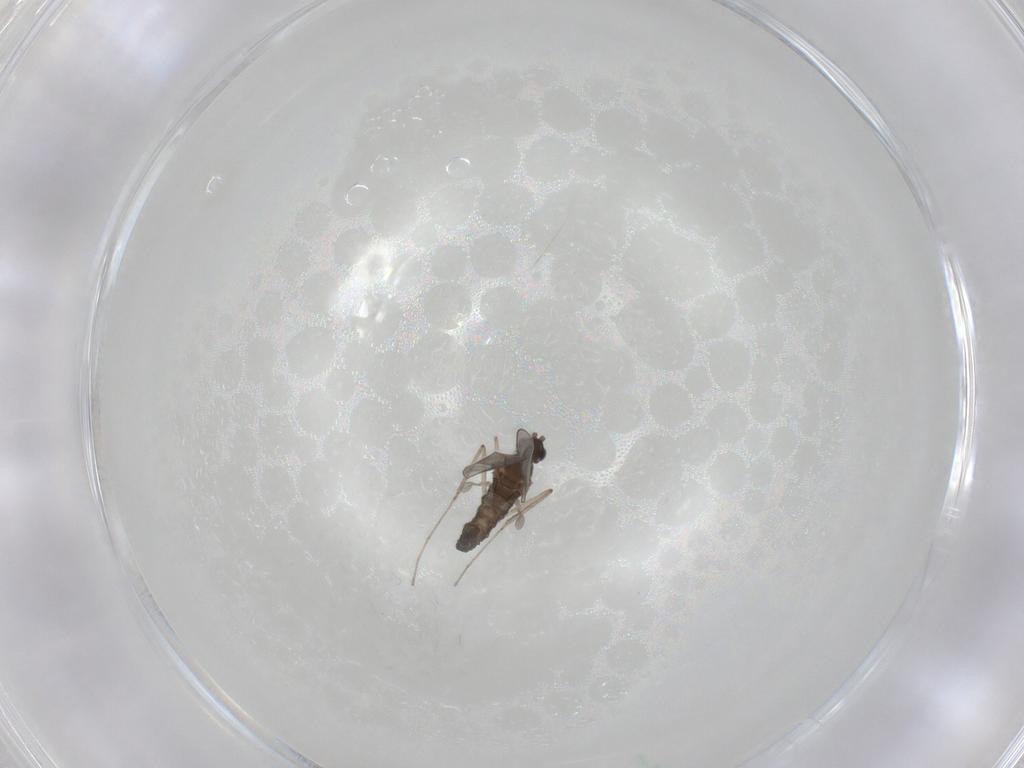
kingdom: Animalia
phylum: Arthropoda
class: Insecta
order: Diptera
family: Cecidomyiidae
